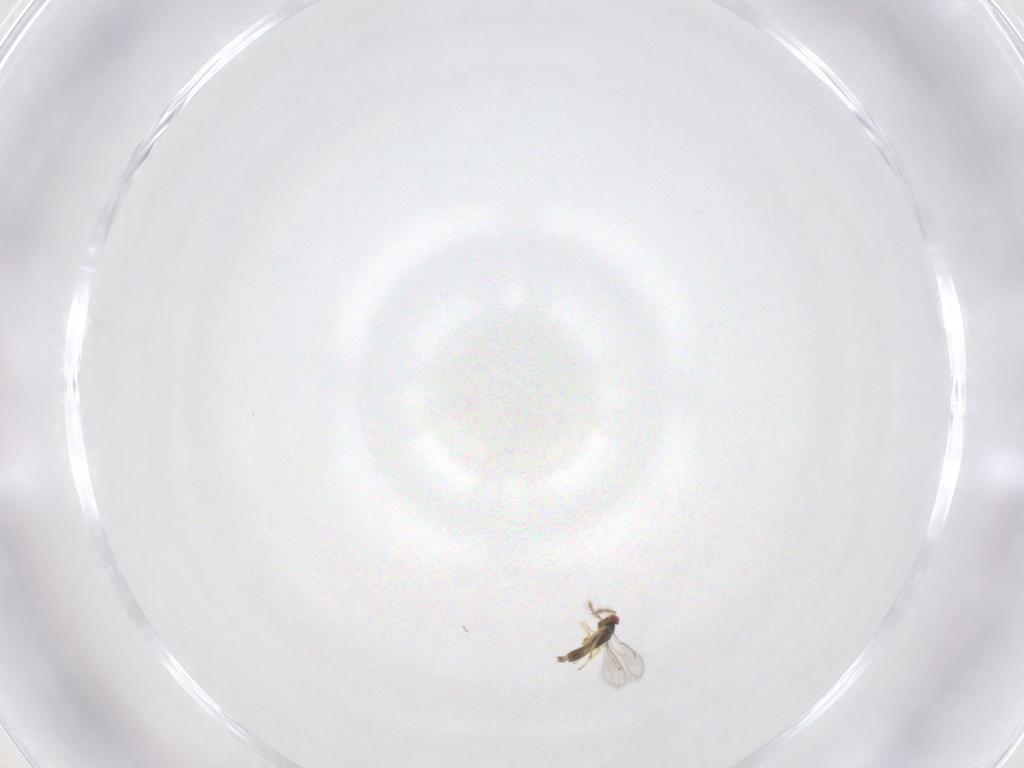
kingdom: Animalia
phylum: Arthropoda
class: Insecta
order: Hymenoptera
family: Eulophidae
